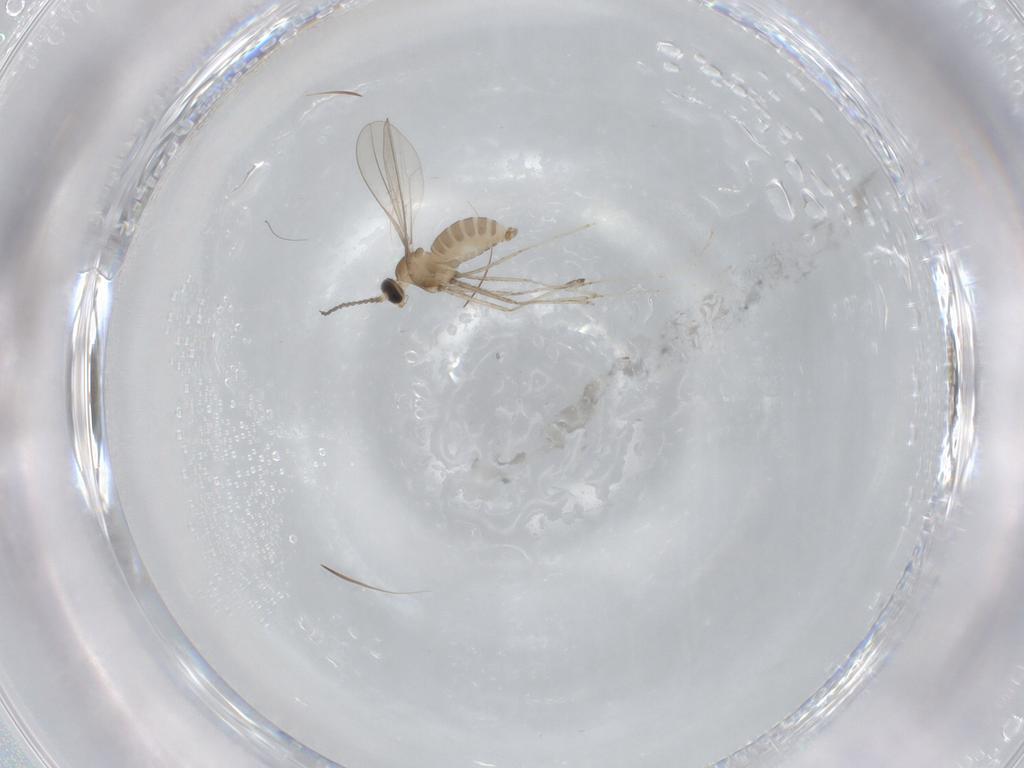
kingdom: Animalia
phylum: Arthropoda
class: Insecta
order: Diptera
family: Cecidomyiidae
